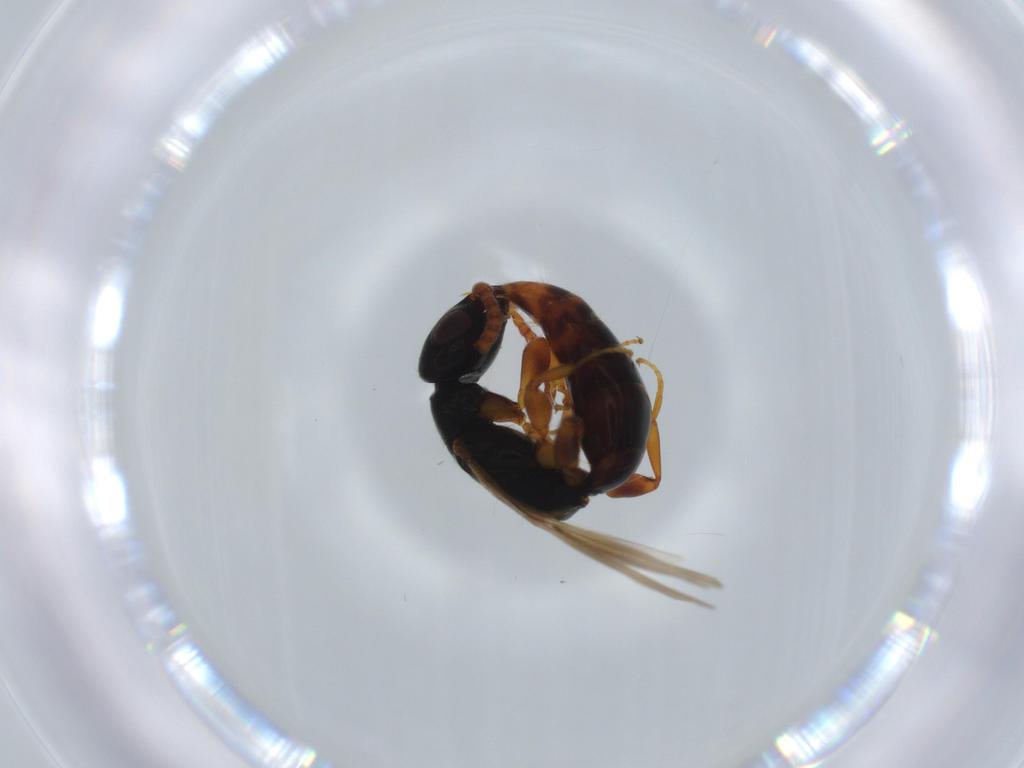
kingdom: Animalia
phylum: Arthropoda
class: Insecta
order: Hymenoptera
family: Bethylidae
